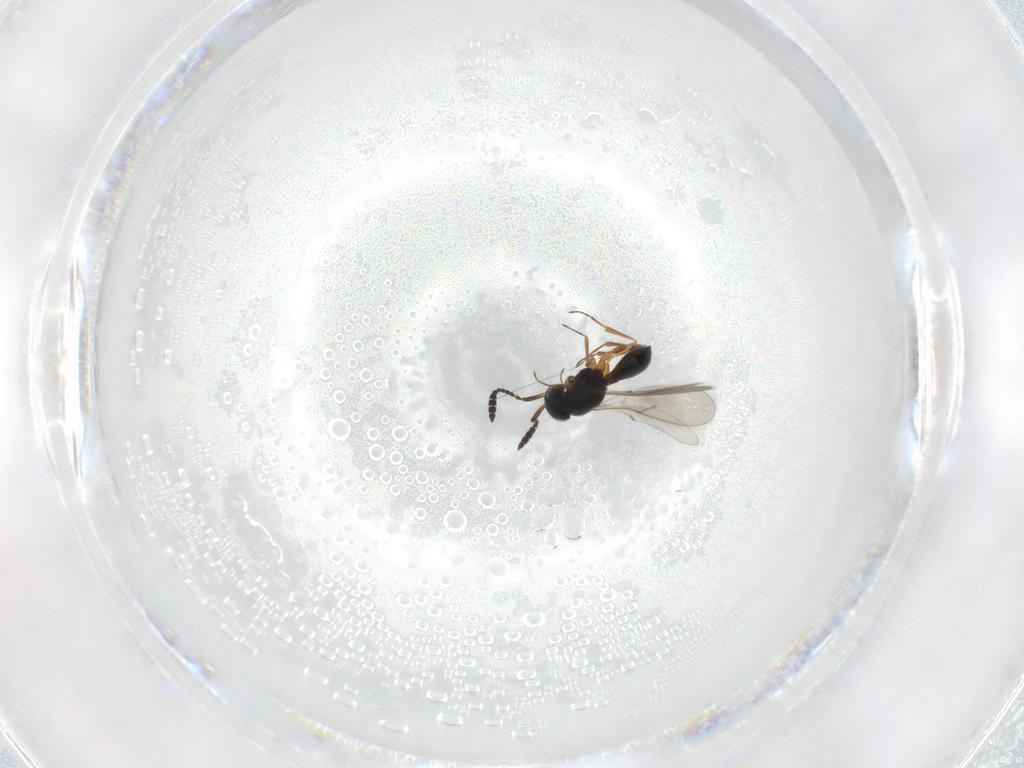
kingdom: Animalia
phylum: Arthropoda
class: Insecta
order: Hymenoptera
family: Scelionidae
